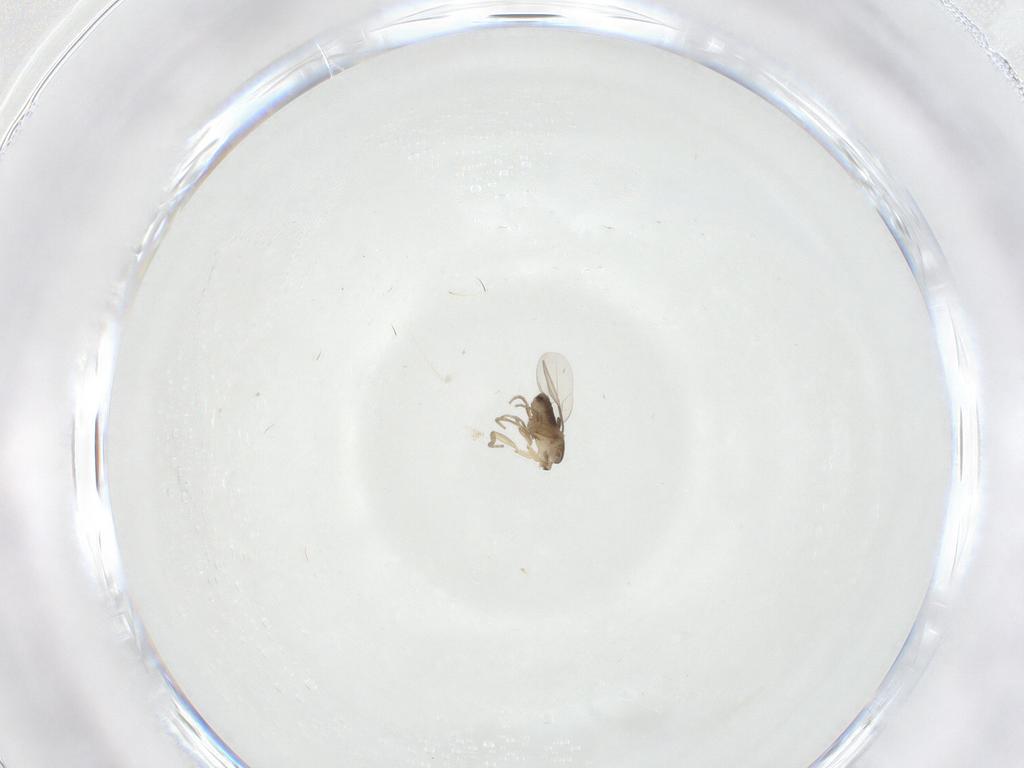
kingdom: Animalia
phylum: Arthropoda
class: Insecta
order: Diptera
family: Phoridae
